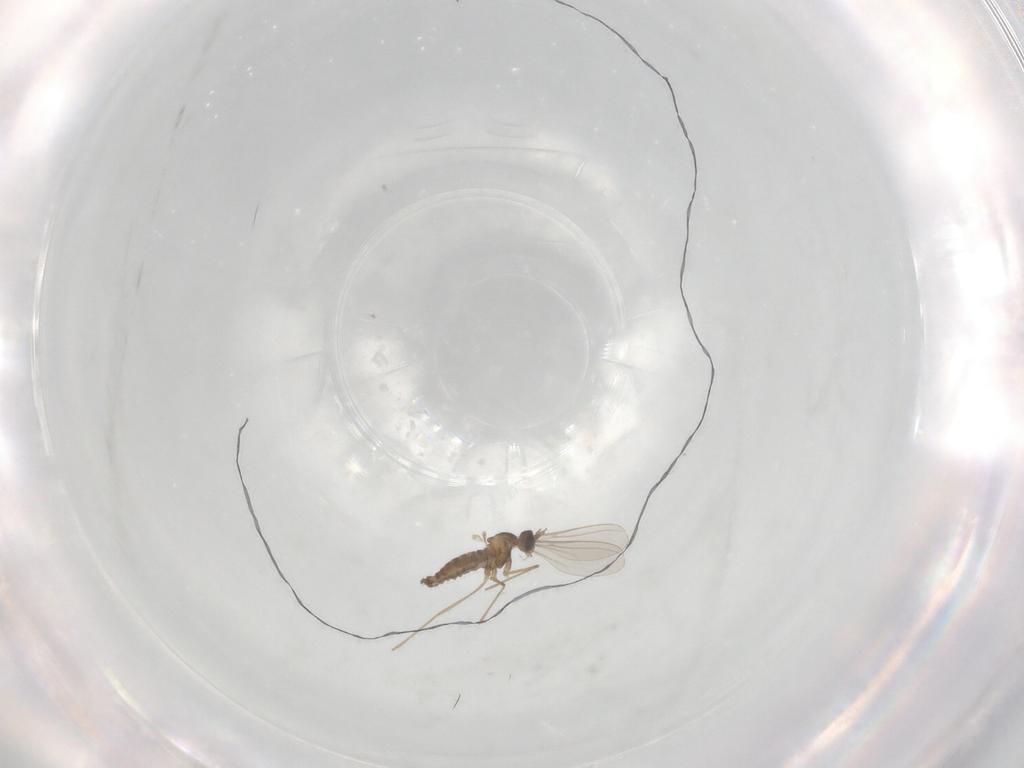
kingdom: Animalia
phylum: Arthropoda
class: Insecta
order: Diptera
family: Cecidomyiidae
